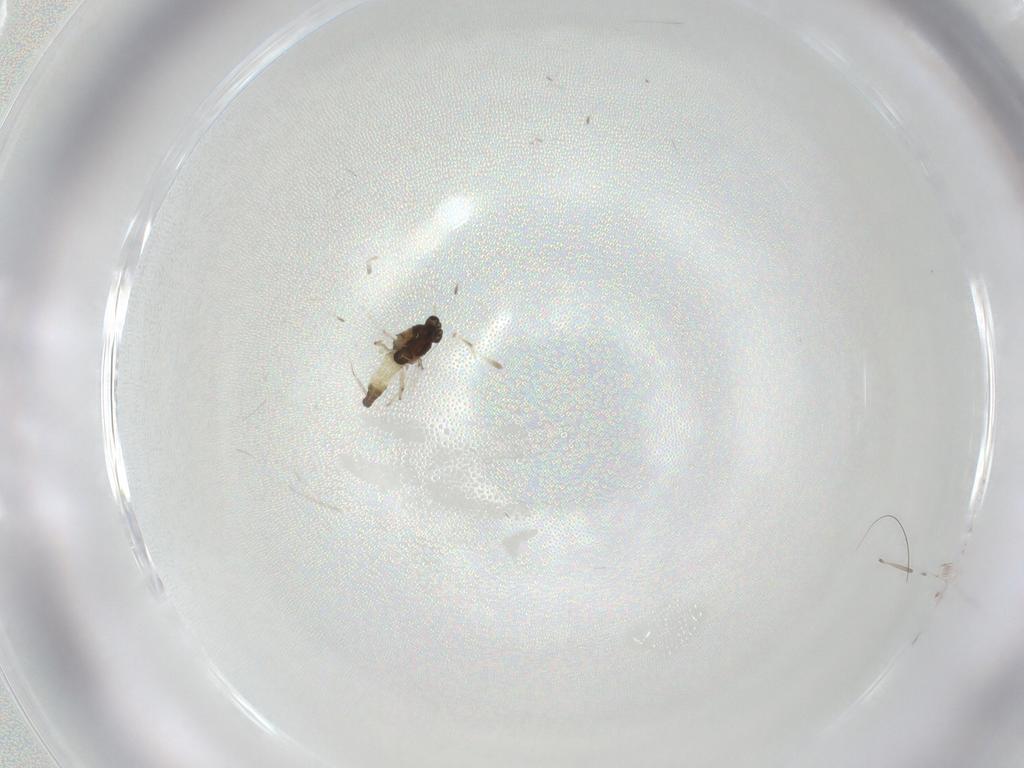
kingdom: Animalia
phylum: Arthropoda
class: Insecta
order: Diptera
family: Chironomidae
